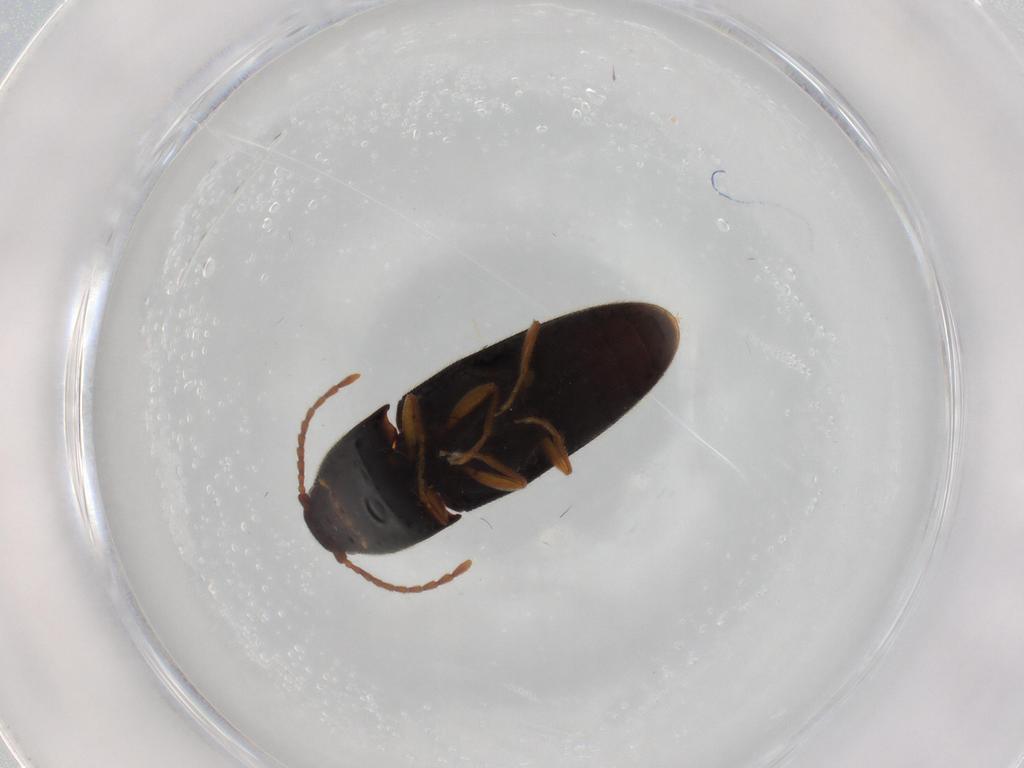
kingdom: Animalia
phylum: Arthropoda
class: Insecta
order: Coleoptera
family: Elateridae
